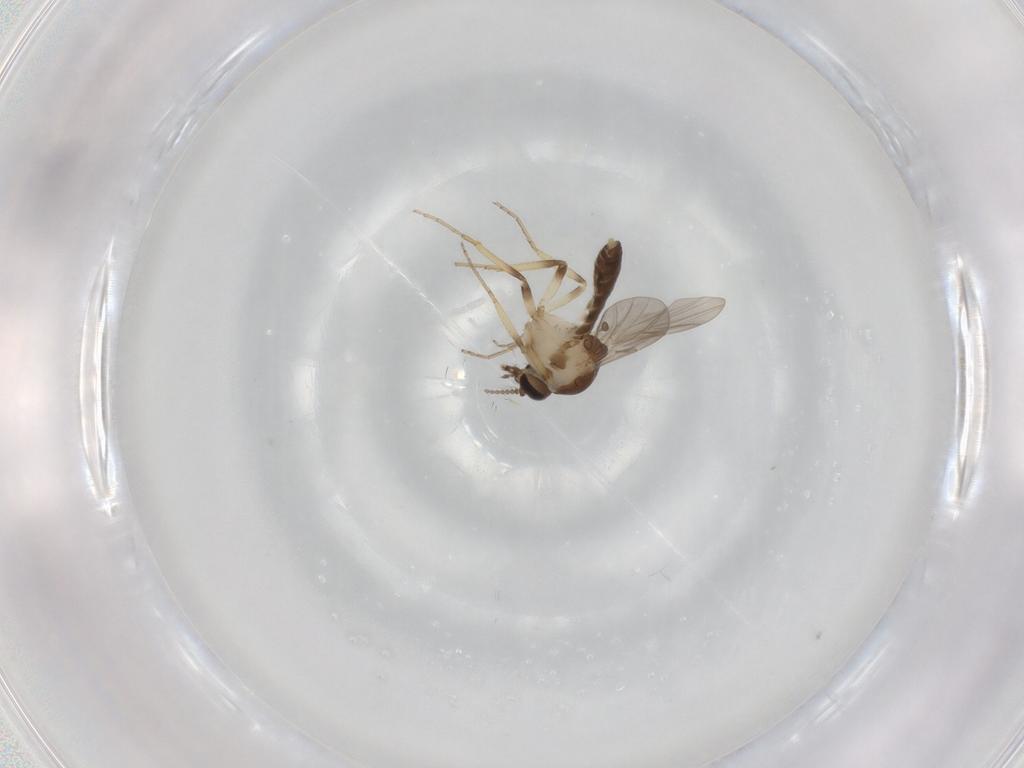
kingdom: Animalia
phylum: Arthropoda
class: Insecta
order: Diptera
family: Ceratopogonidae
